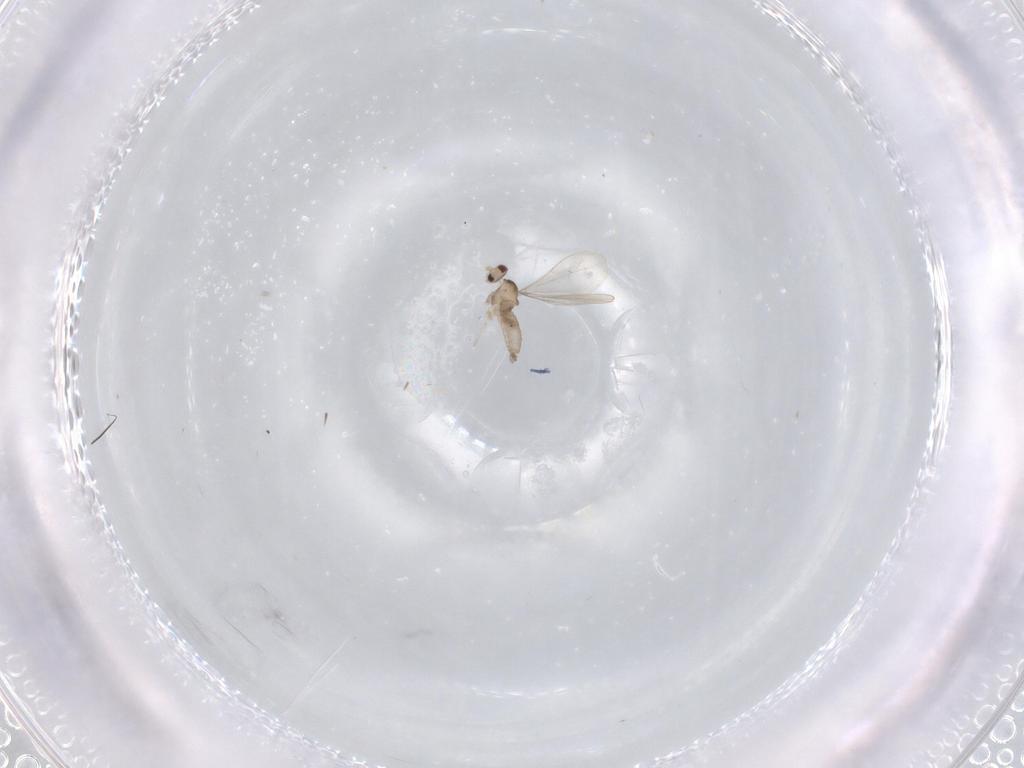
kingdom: Animalia
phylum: Arthropoda
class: Insecta
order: Diptera
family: Cecidomyiidae
